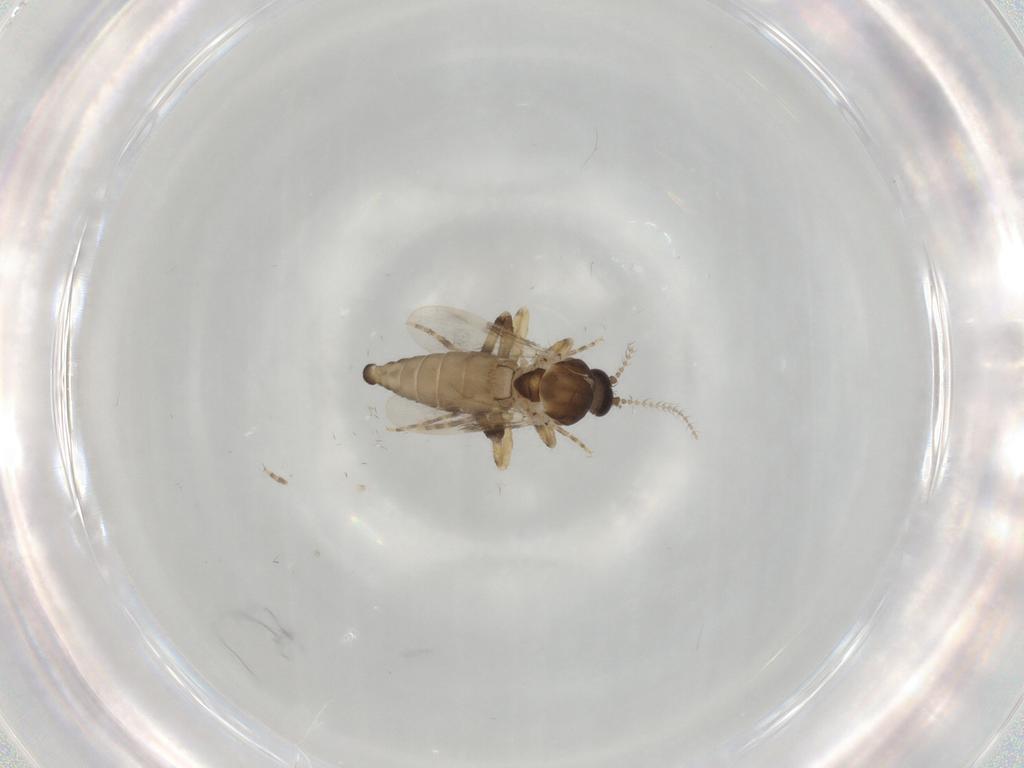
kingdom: Animalia
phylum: Arthropoda
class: Insecta
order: Diptera
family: Ceratopogonidae
